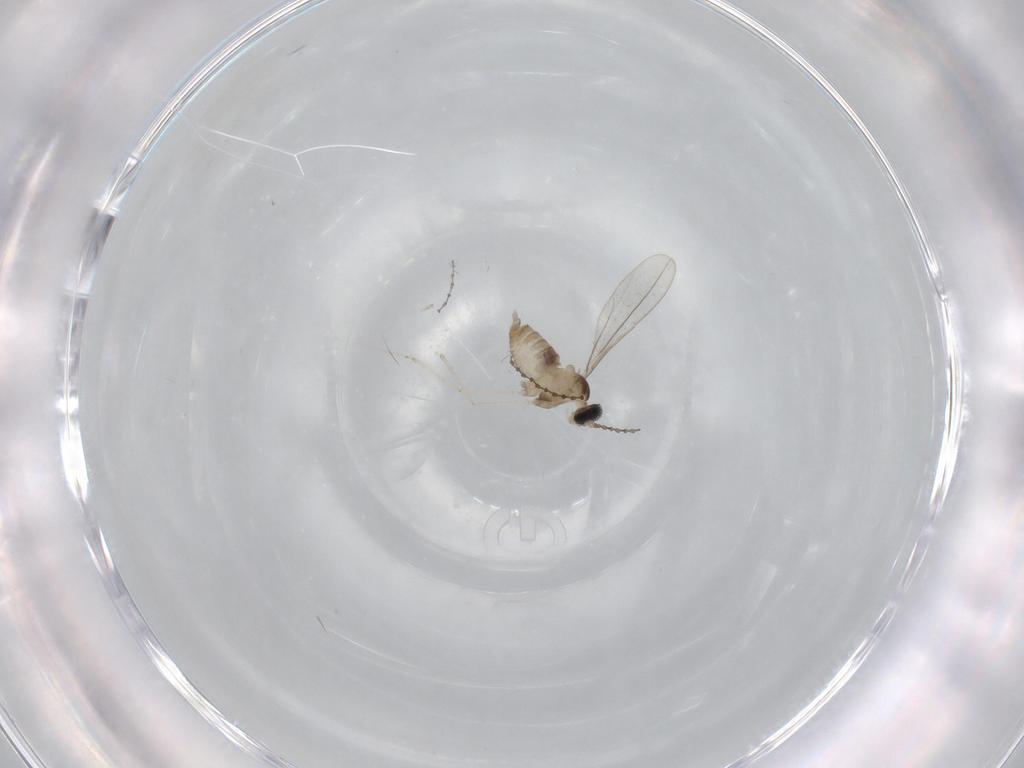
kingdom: Animalia
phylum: Arthropoda
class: Insecta
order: Diptera
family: Cecidomyiidae
